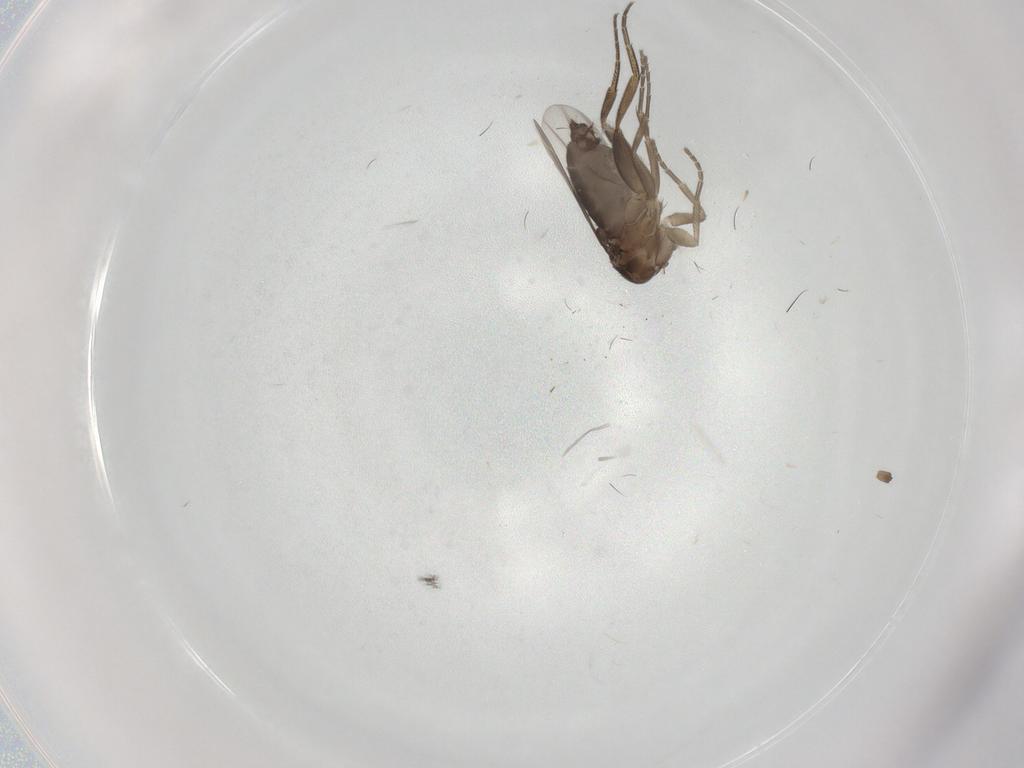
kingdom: Animalia
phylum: Arthropoda
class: Insecta
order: Diptera
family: Phoridae
